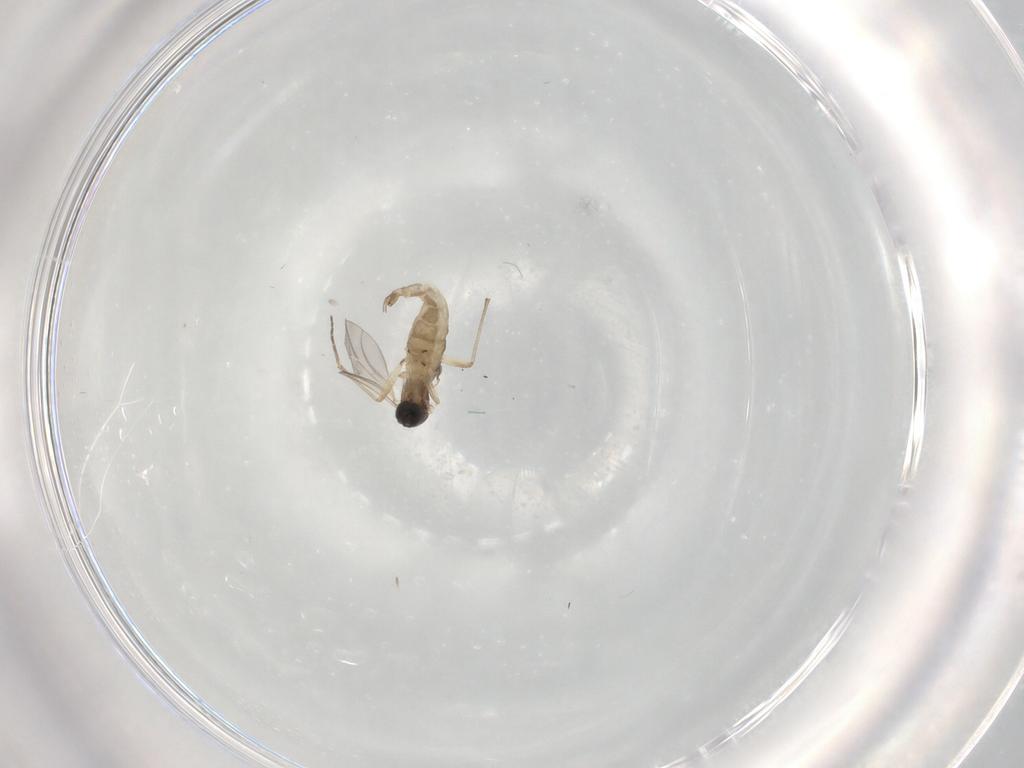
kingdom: Animalia
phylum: Arthropoda
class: Insecta
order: Diptera
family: Sciaridae
